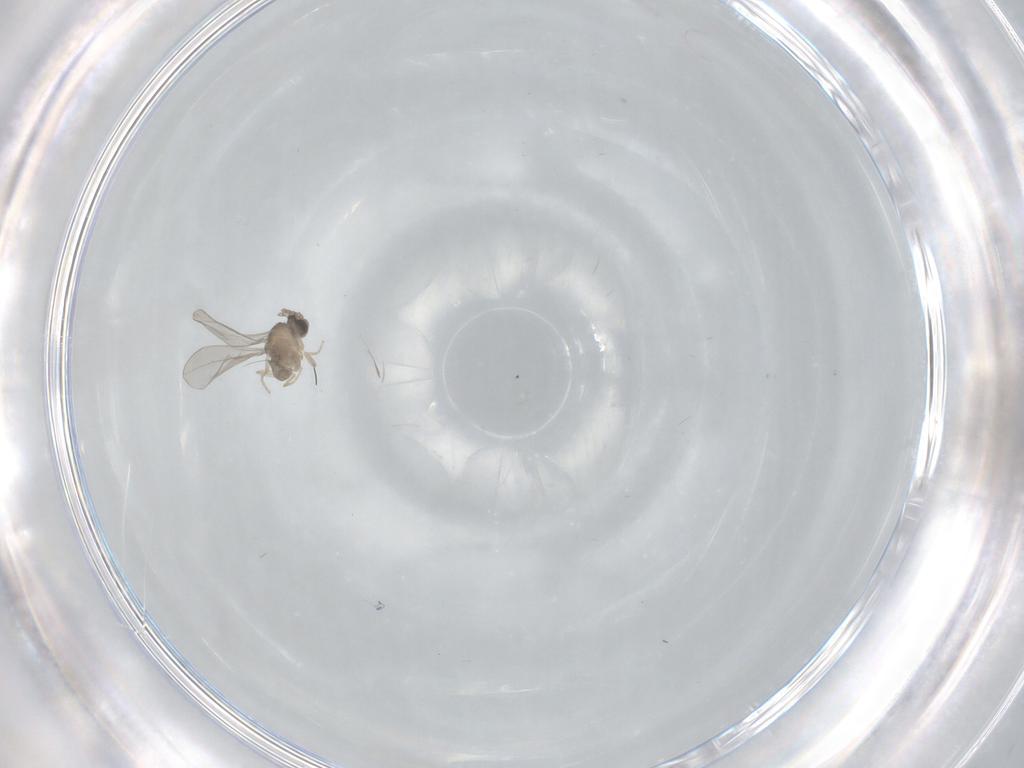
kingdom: Animalia
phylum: Arthropoda
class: Insecta
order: Diptera
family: Cecidomyiidae
